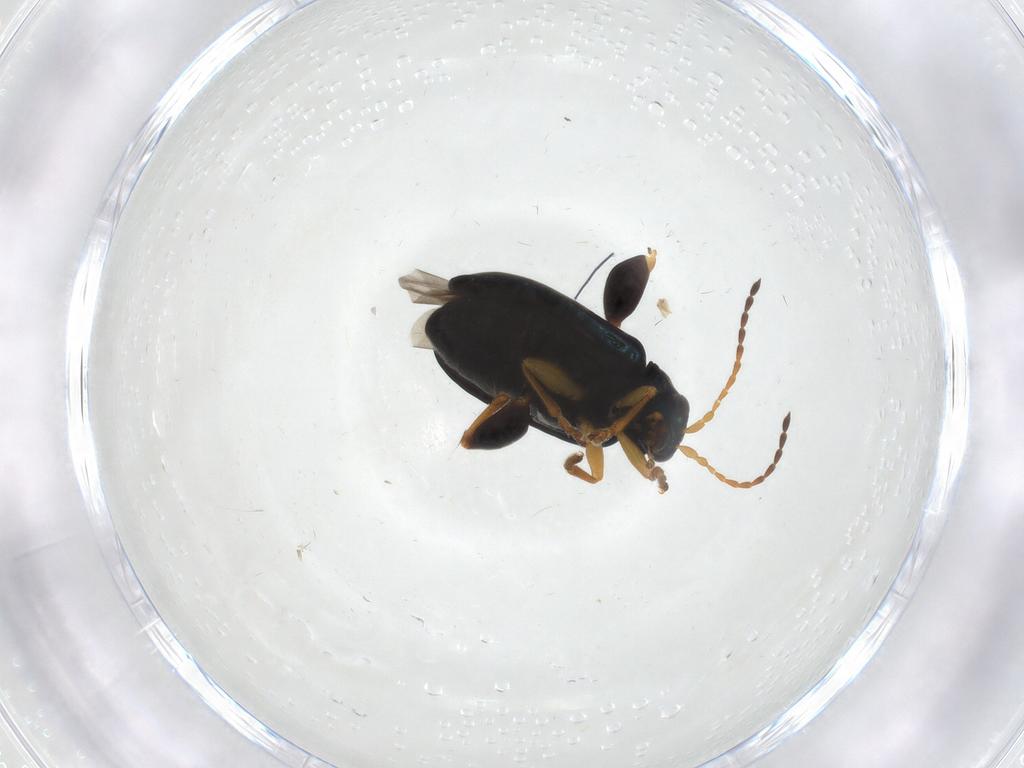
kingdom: Animalia
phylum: Arthropoda
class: Insecta
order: Coleoptera
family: Chrysomelidae
